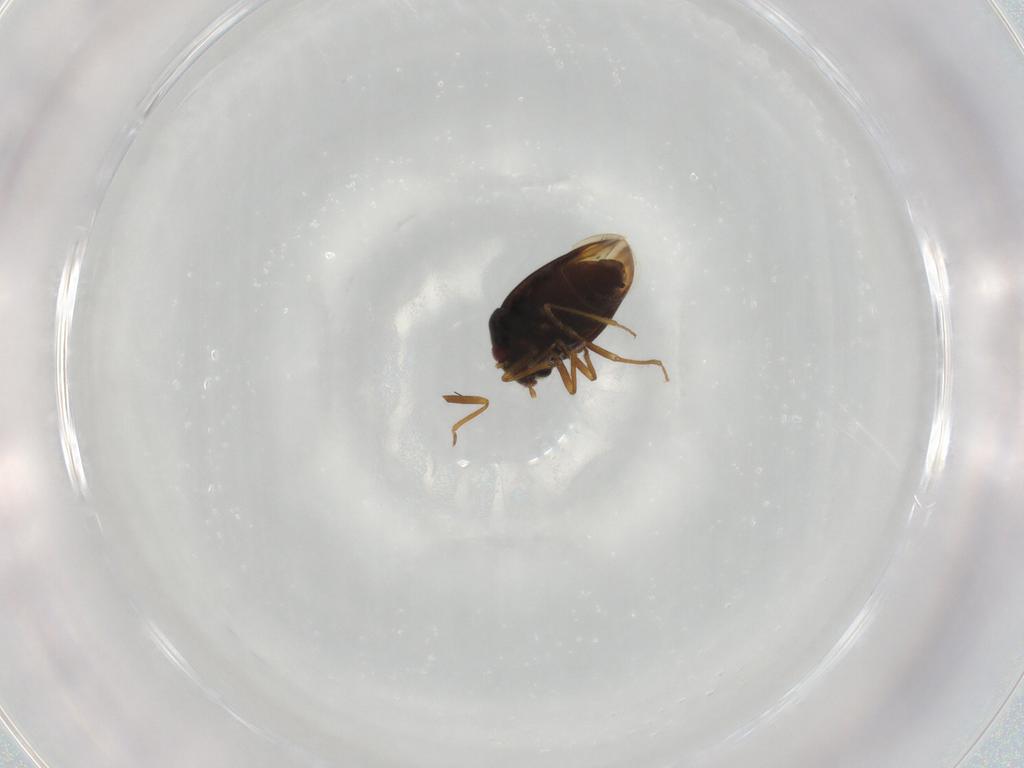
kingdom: Animalia
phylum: Arthropoda
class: Insecta
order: Hemiptera
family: Schizopteridae
